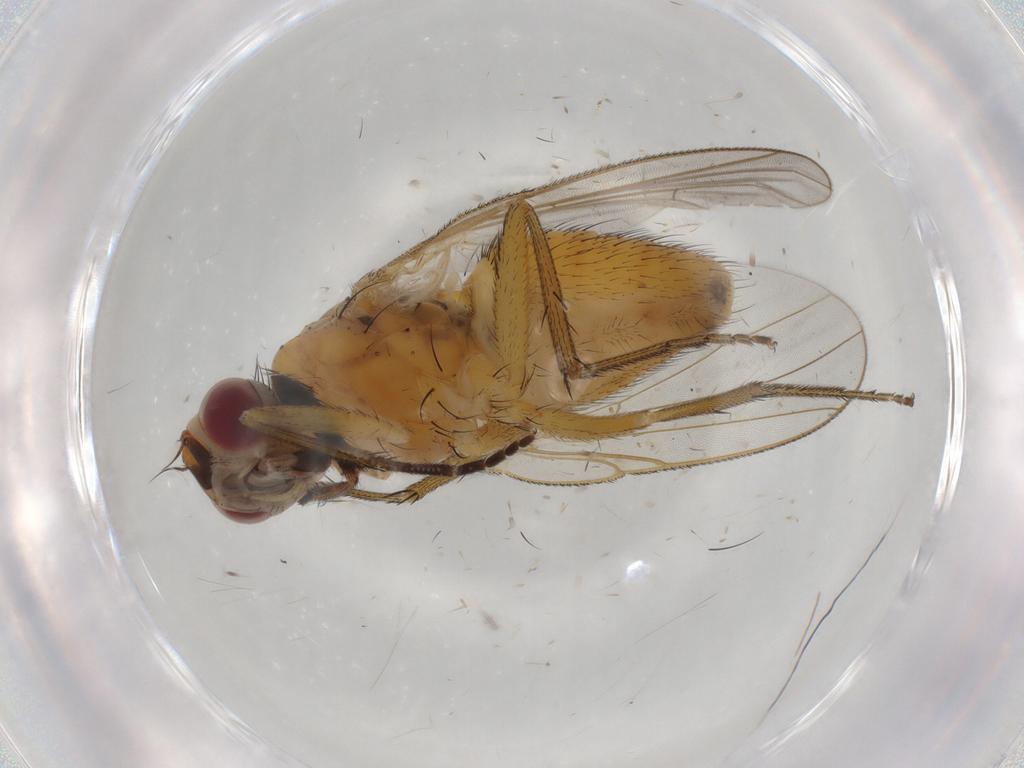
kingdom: Animalia
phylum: Arthropoda
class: Insecta
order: Diptera
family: Muscidae
